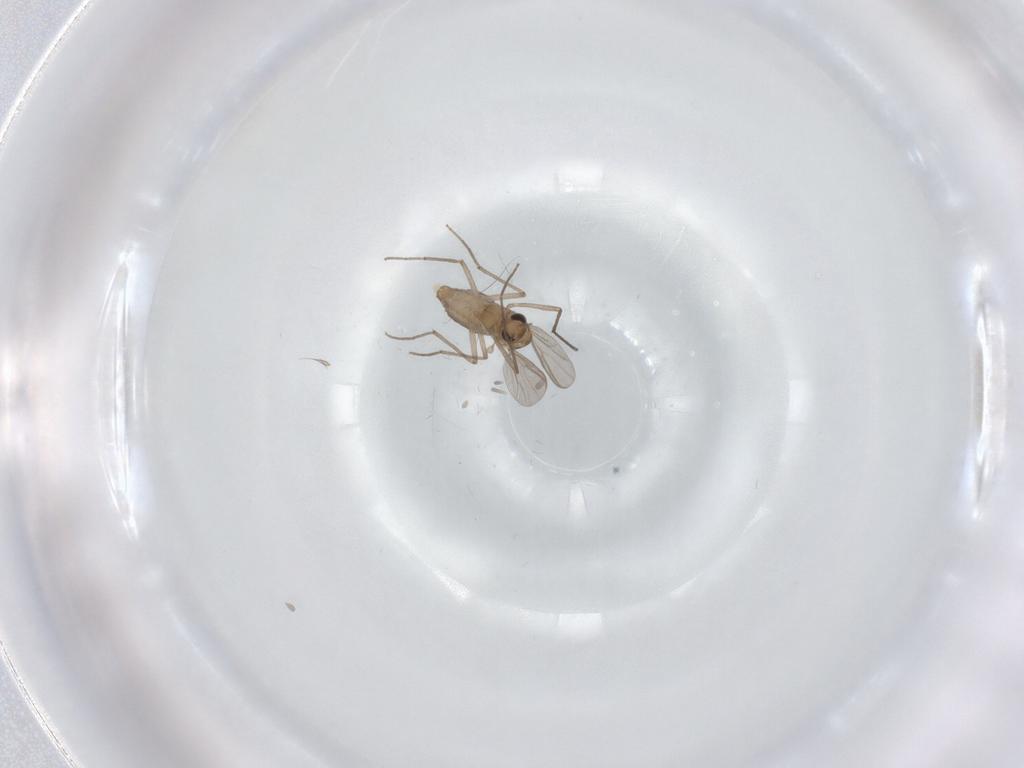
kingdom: Animalia
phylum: Arthropoda
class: Insecta
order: Diptera
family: Chironomidae
